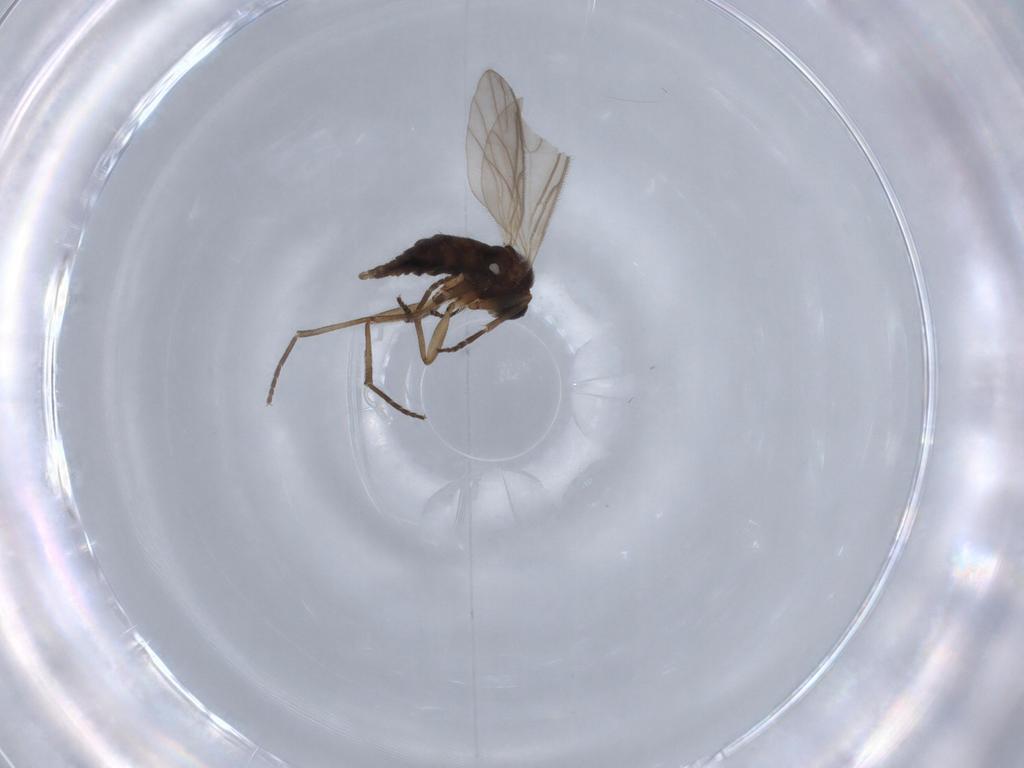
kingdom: Animalia
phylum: Arthropoda
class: Insecta
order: Diptera
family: Sciaridae
